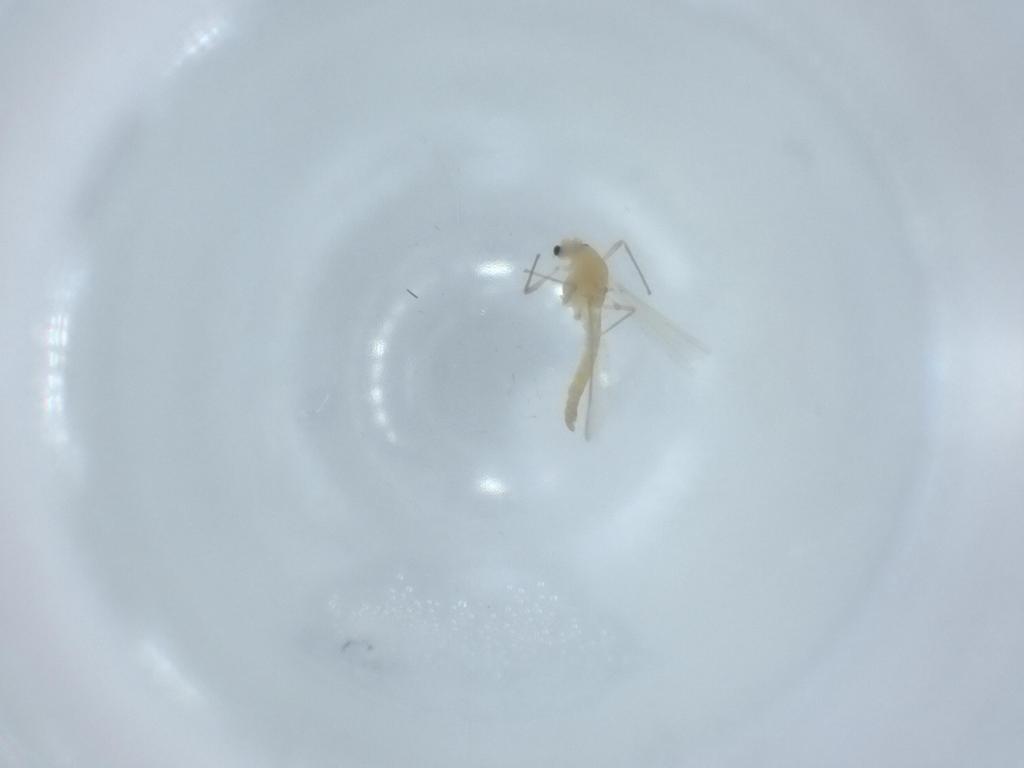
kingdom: Animalia
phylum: Arthropoda
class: Insecta
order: Diptera
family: Chironomidae
